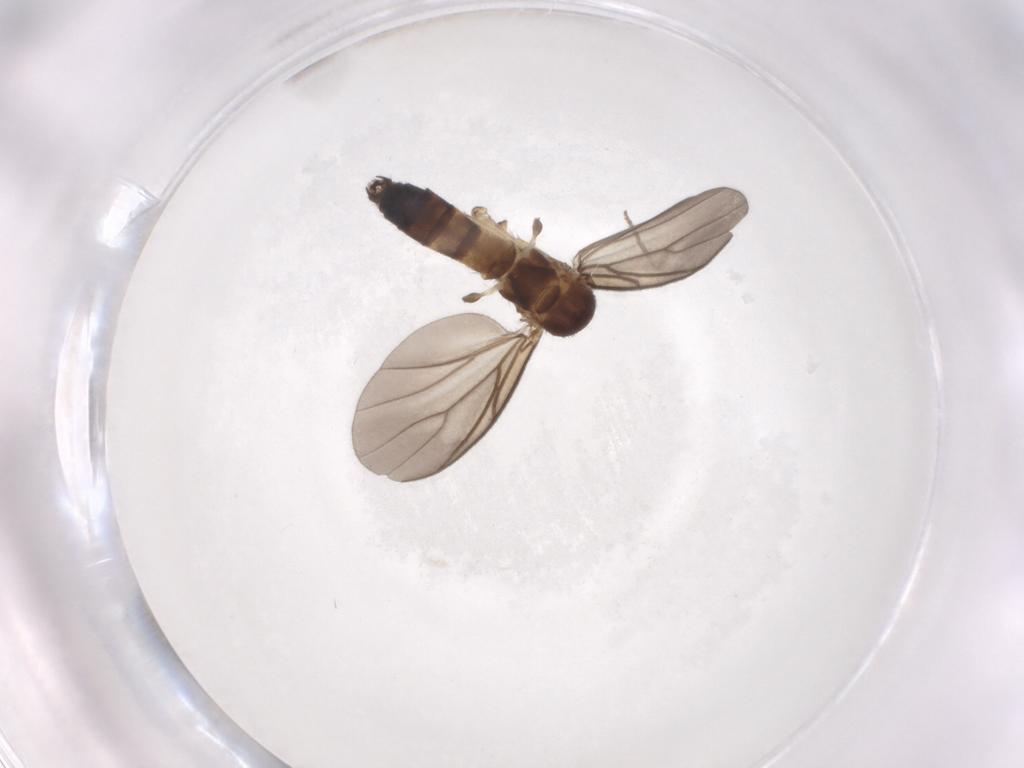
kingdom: Animalia
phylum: Arthropoda
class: Insecta
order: Diptera
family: Mycetophilidae
